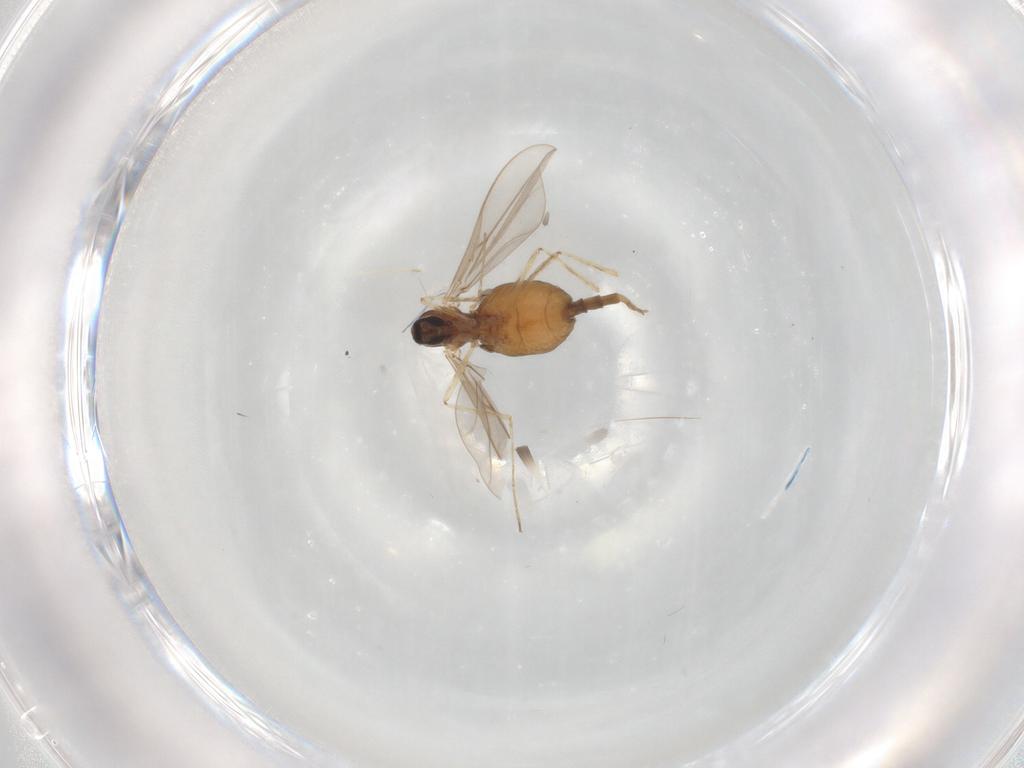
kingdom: Animalia
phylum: Arthropoda
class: Insecta
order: Diptera
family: Cecidomyiidae
